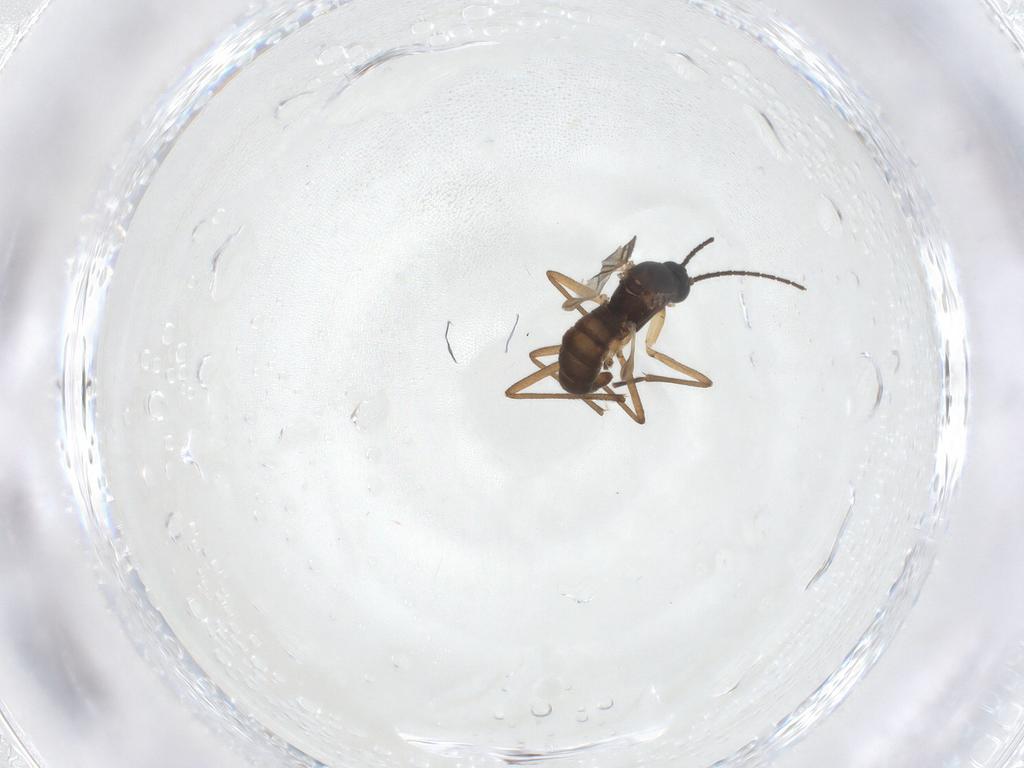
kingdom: Animalia
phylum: Arthropoda
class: Insecta
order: Diptera
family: Sciaridae
